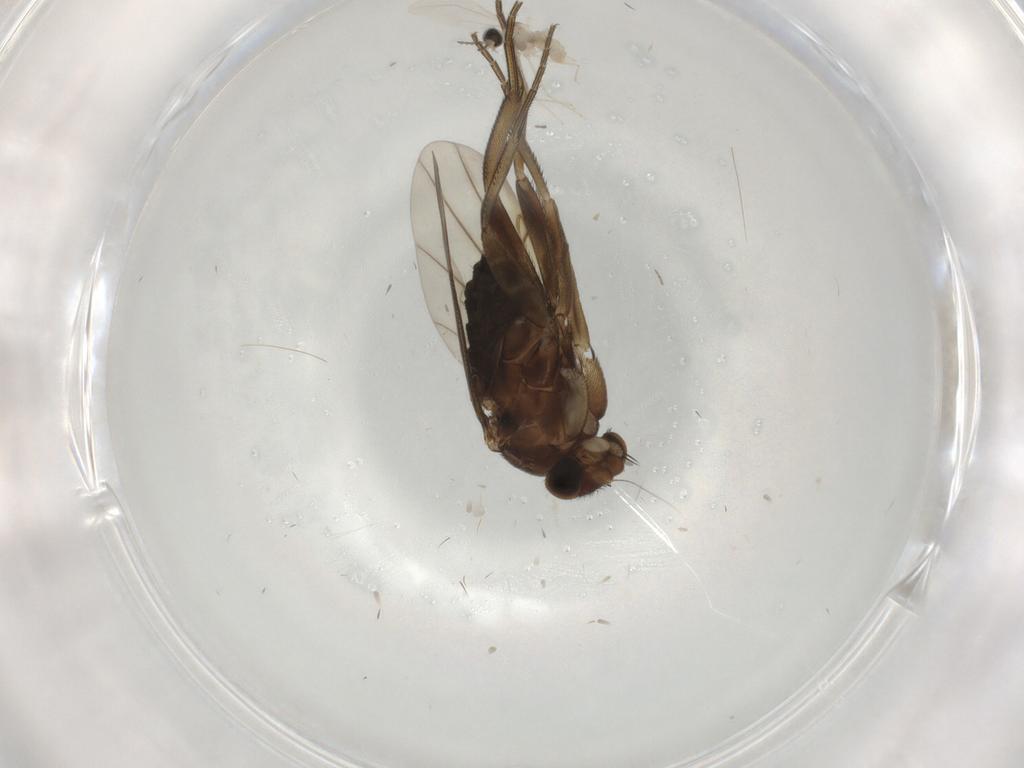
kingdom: Animalia
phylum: Arthropoda
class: Insecta
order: Diptera
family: Phoridae
